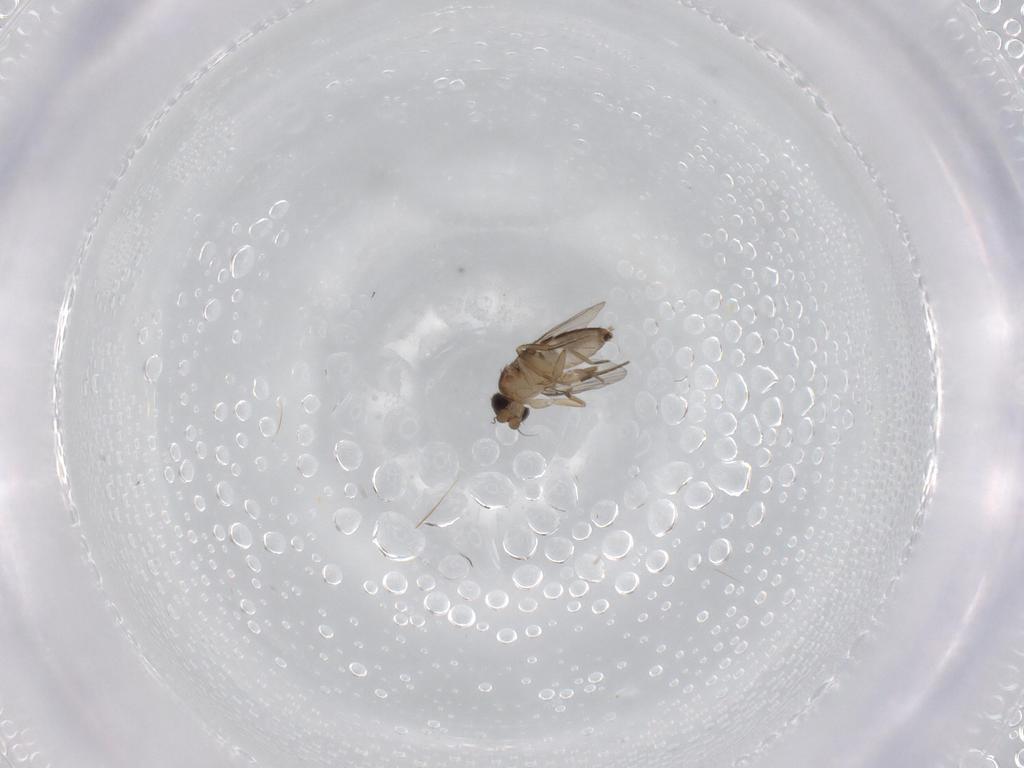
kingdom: Animalia
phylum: Arthropoda
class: Insecta
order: Diptera
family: Phoridae
